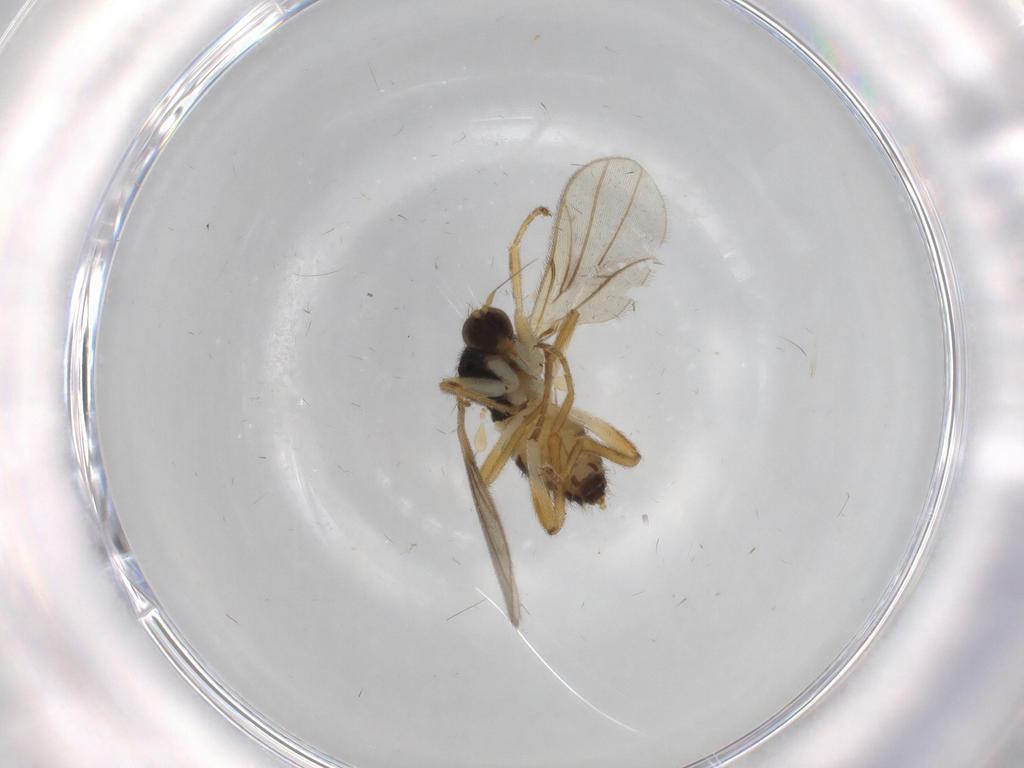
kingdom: Animalia
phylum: Arthropoda
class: Insecta
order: Diptera
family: Hybotidae
